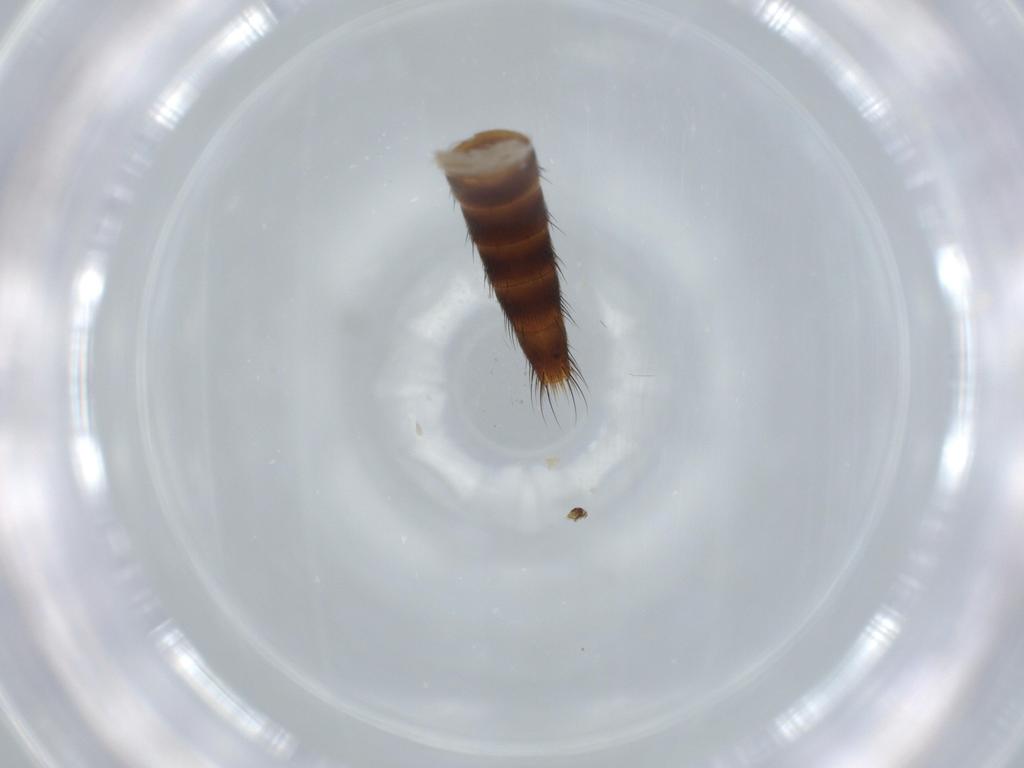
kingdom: Animalia
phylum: Arthropoda
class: Insecta
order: Coleoptera
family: Staphylinidae
